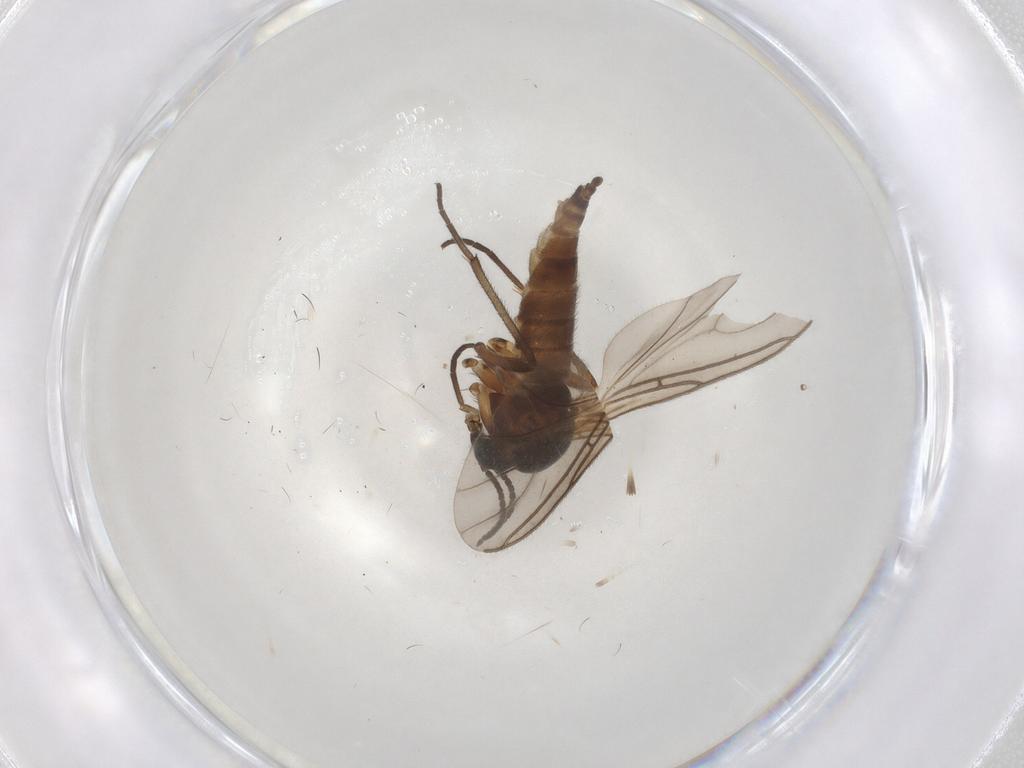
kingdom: Animalia
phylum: Arthropoda
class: Insecta
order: Diptera
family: Sciaridae
